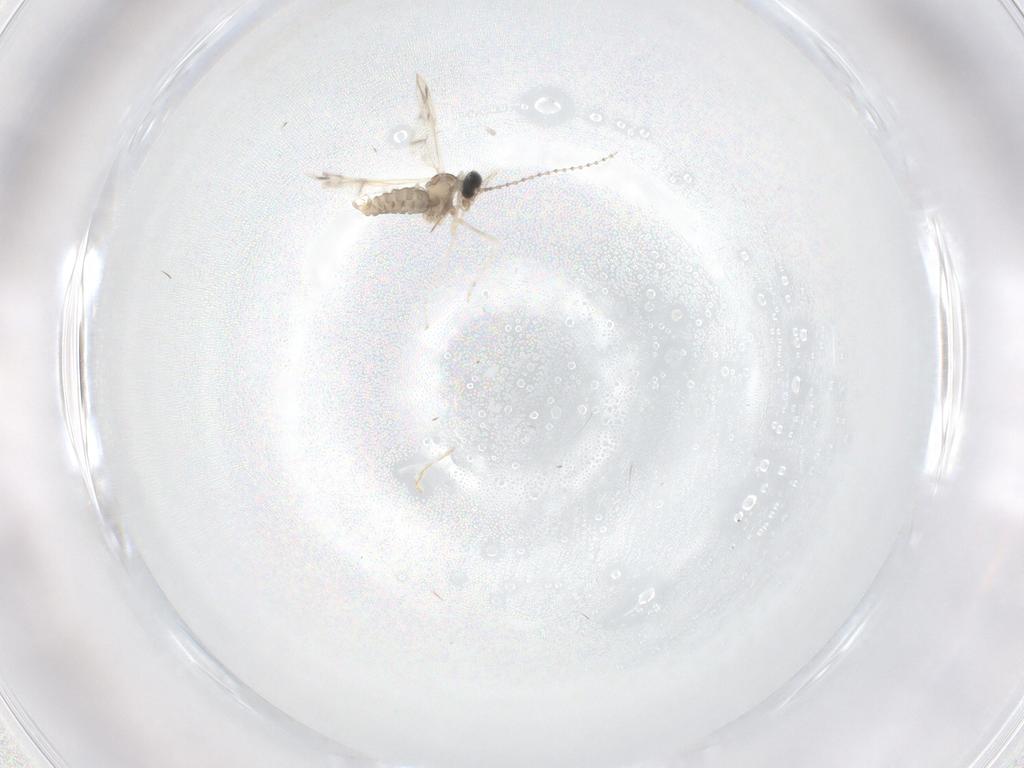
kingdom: Animalia
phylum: Arthropoda
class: Insecta
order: Diptera
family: Cecidomyiidae
